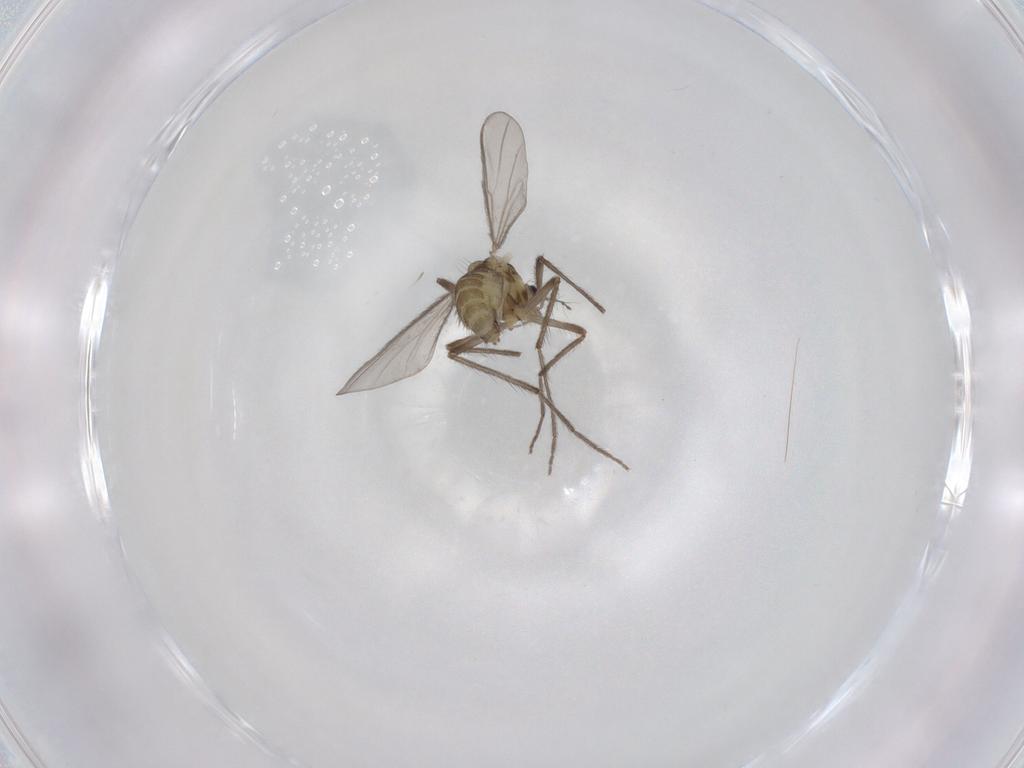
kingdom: Animalia
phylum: Arthropoda
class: Insecta
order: Diptera
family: Chironomidae
